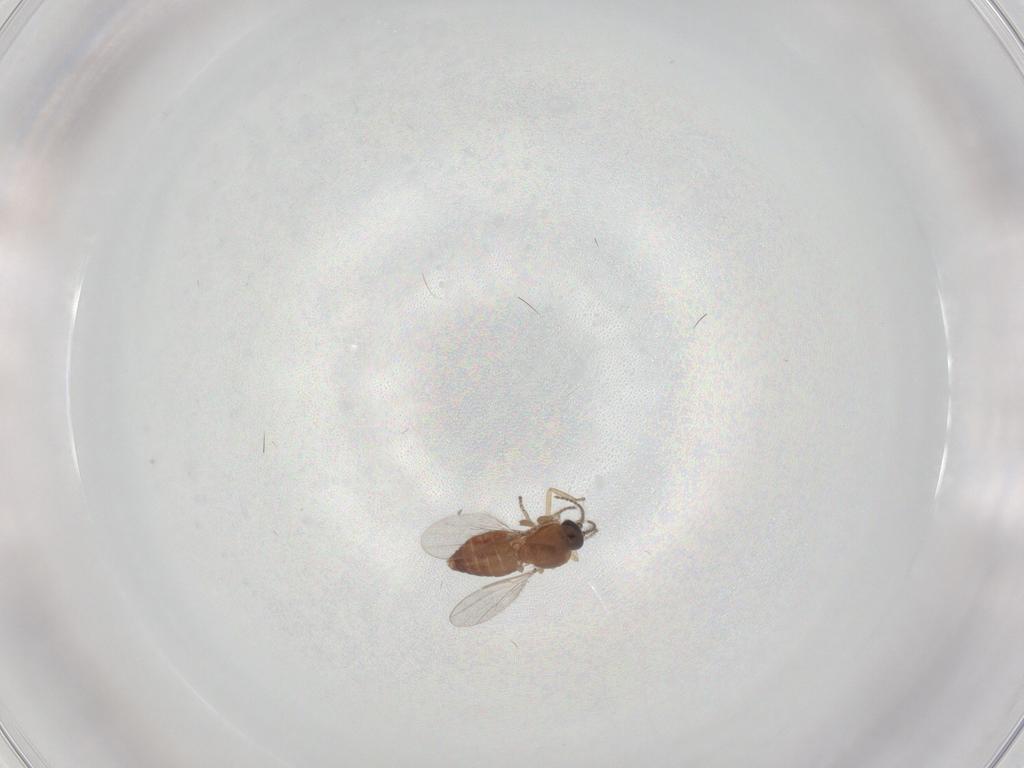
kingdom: Animalia
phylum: Arthropoda
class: Insecta
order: Diptera
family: Ceratopogonidae
